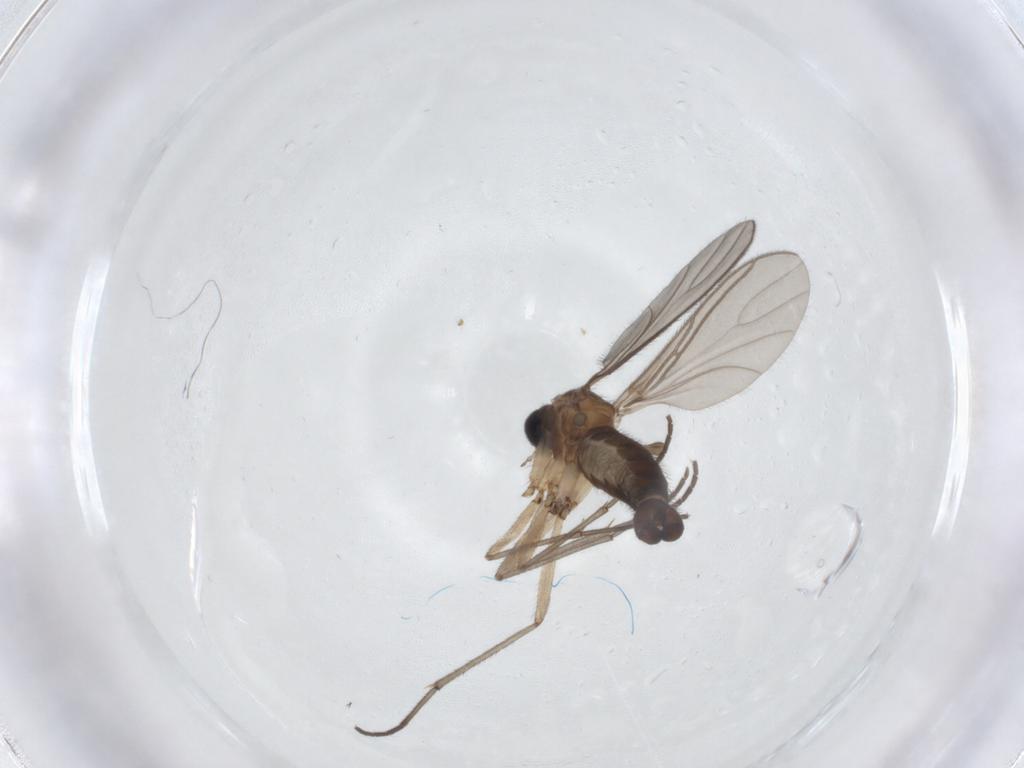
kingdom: Animalia
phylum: Arthropoda
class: Insecta
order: Diptera
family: Sciaridae
